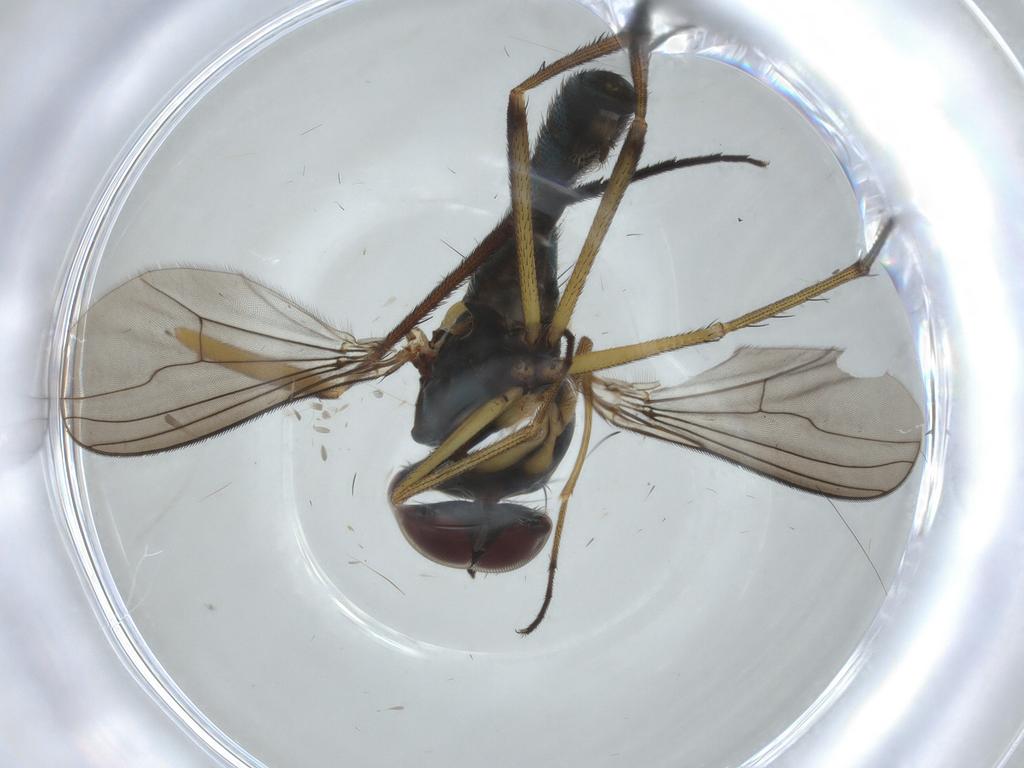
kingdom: Animalia
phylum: Arthropoda
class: Insecta
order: Diptera
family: Dolichopodidae
